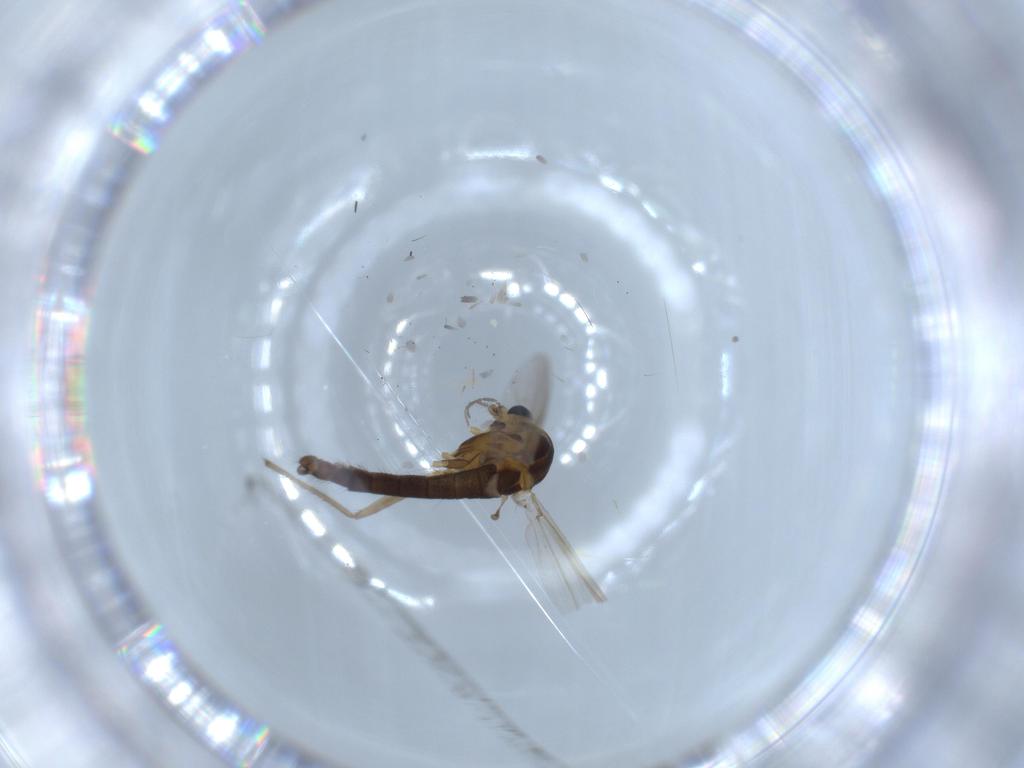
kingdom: Animalia
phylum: Arthropoda
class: Insecta
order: Diptera
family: Chironomidae
